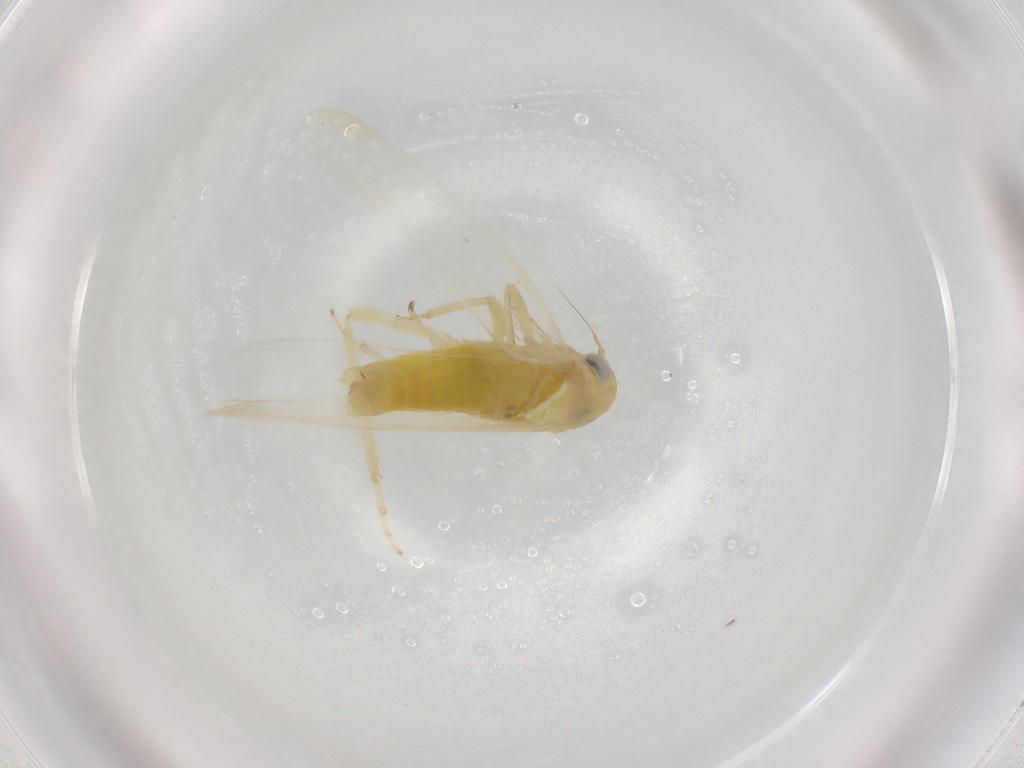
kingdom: Animalia
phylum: Arthropoda
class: Insecta
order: Hemiptera
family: Cicadellidae
